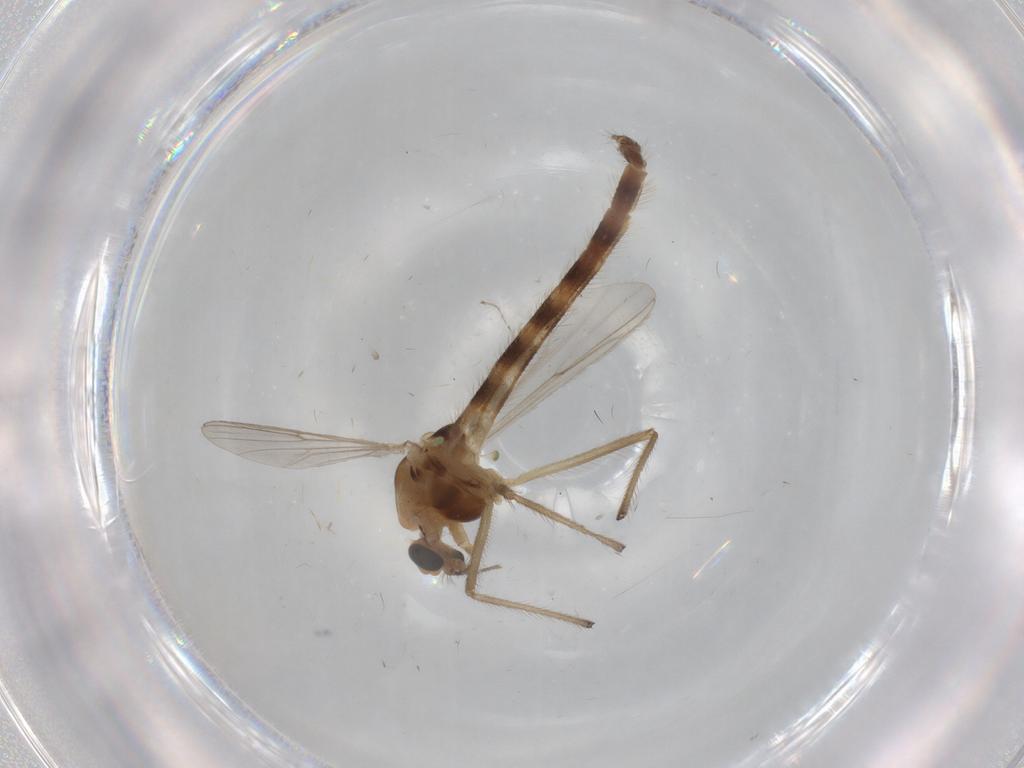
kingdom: Animalia
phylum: Arthropoda
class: Insecta
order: Diptera
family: Chironomidae
